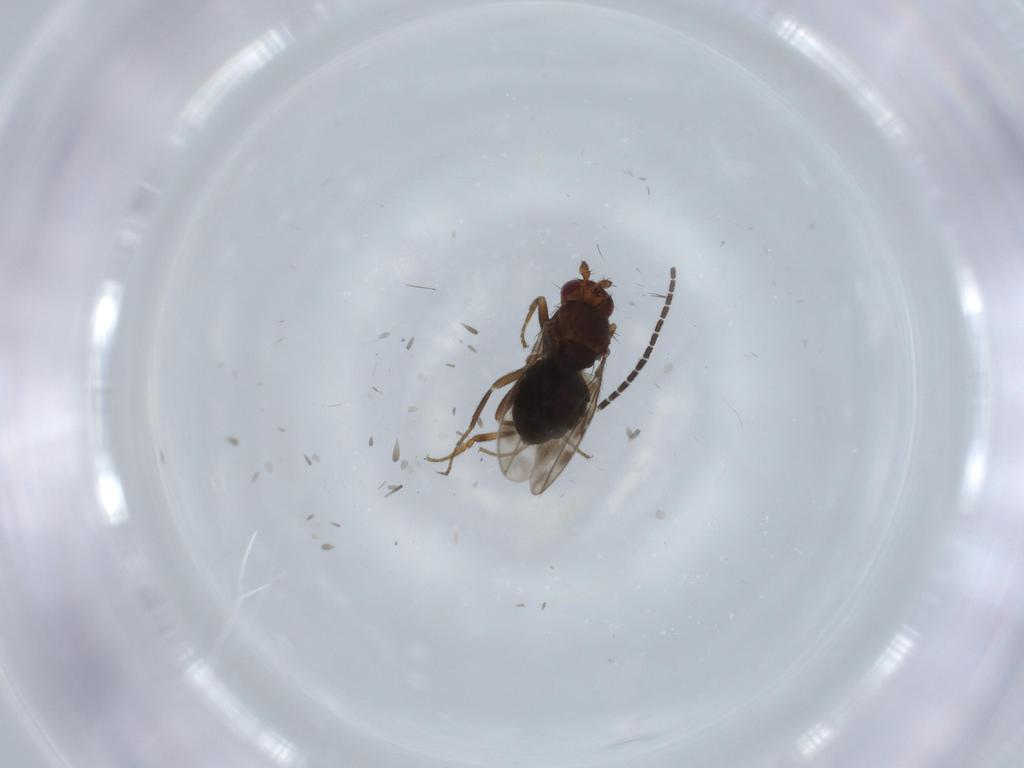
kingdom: Animalia
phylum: Arthropoda
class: Insecta
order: Diptera
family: Sphaeroceridae
